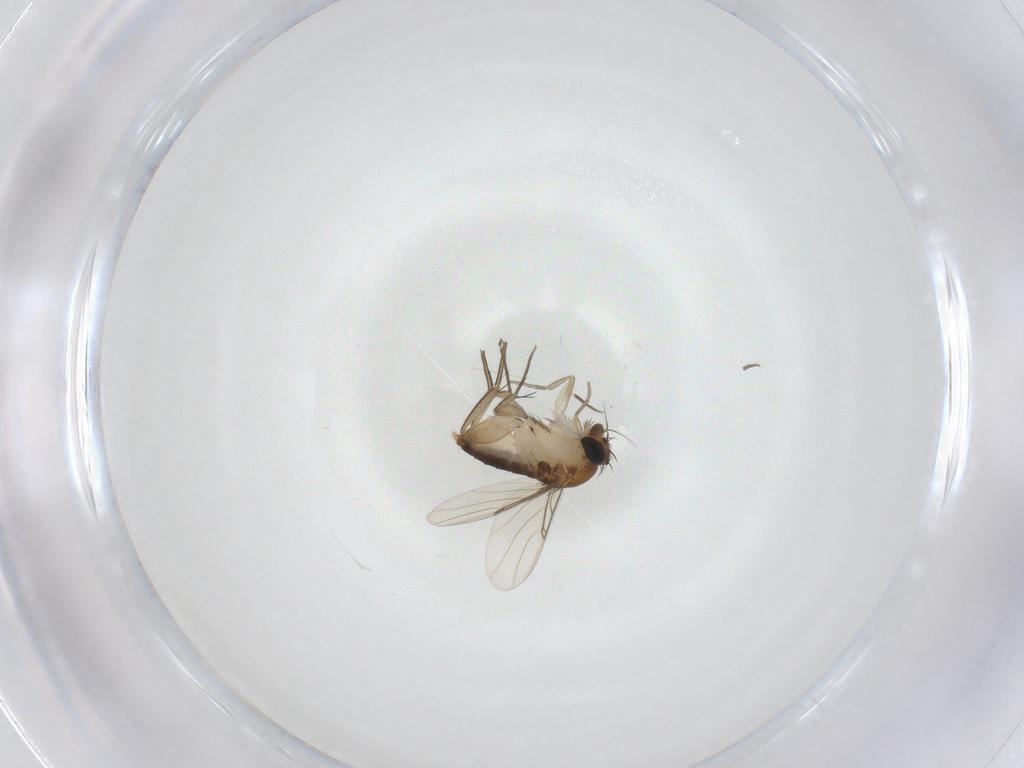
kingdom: Animalia
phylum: Arthropoda
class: Insecta
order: Diptera
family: Phoridae
